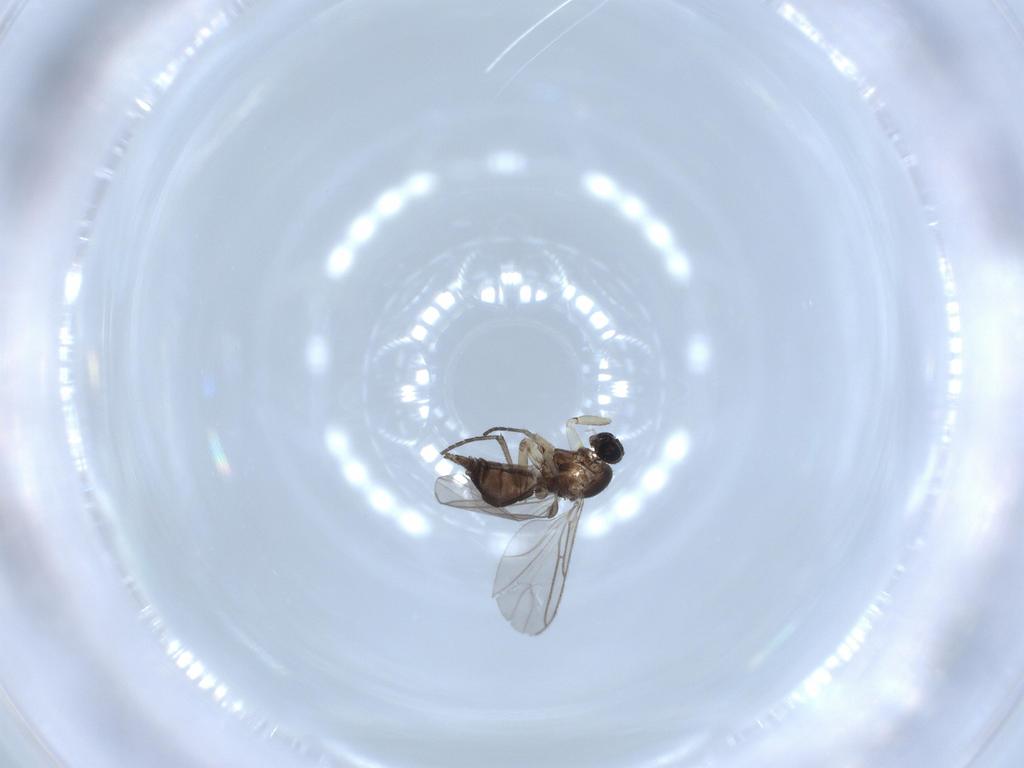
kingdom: Animalia
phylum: Arthropoda
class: Insecta
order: Diptera
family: Sciaridae
